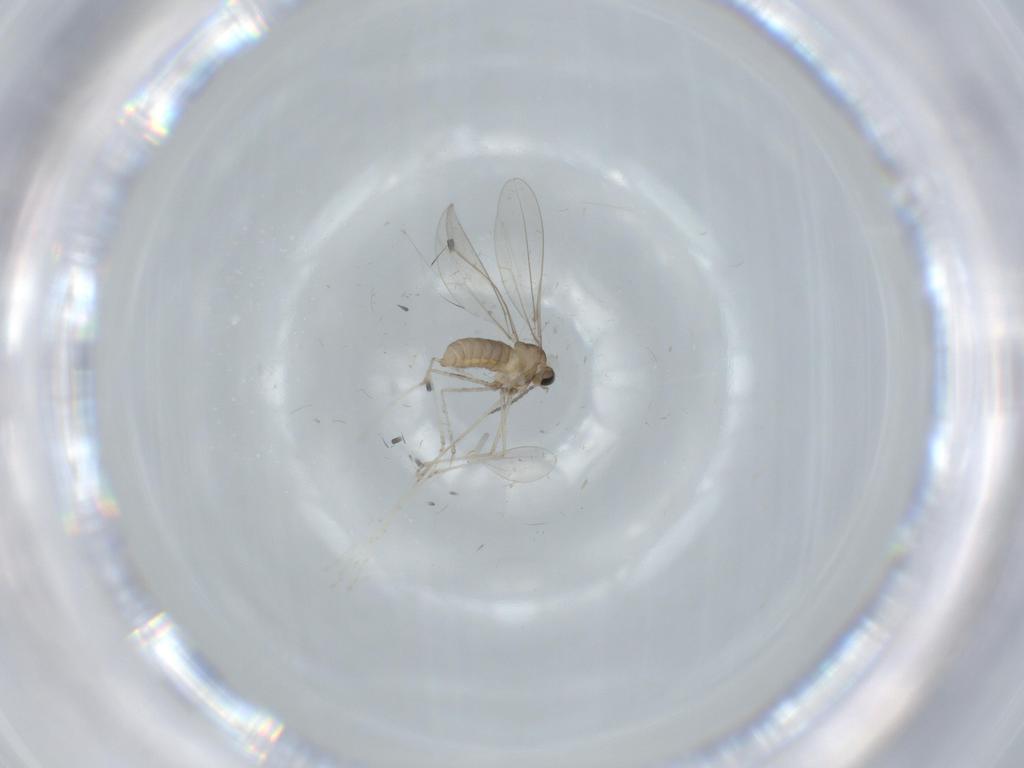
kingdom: Animalia
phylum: Arthropoda
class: Insecta
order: Diptera
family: Cecidomyiidae
